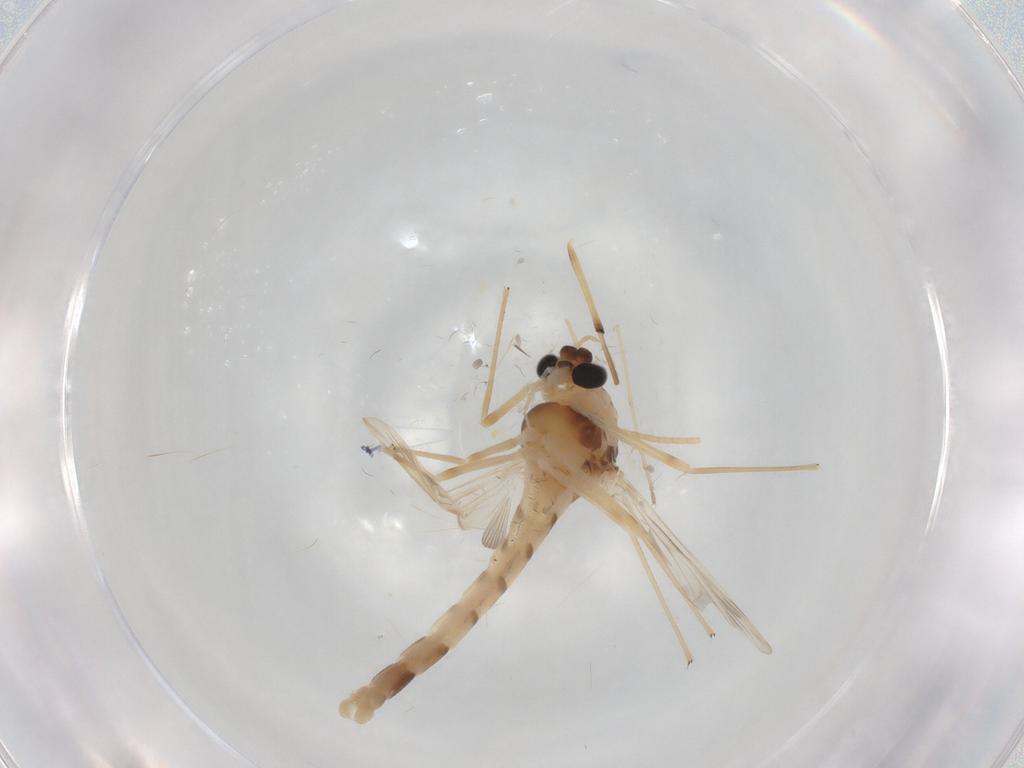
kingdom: Animalia
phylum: Arthropoda
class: Insecta
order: Diptera
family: Chironomidae
